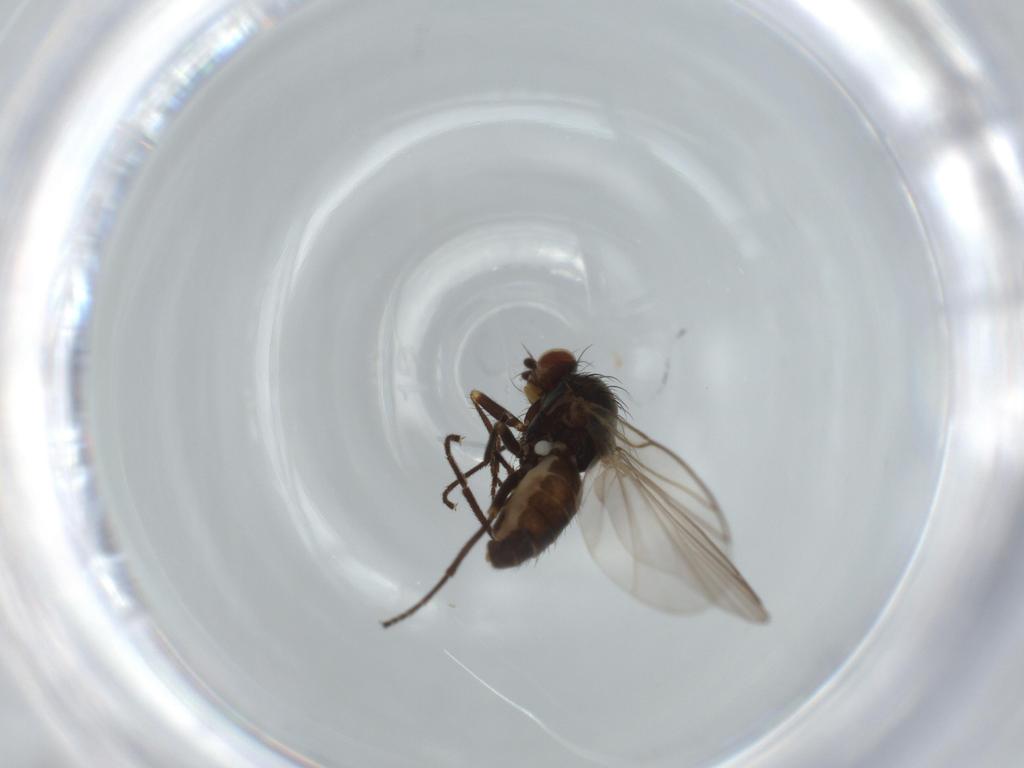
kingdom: Animalia
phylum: Arthropoda
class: Insecta
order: Diptera
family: Agromyzidae
